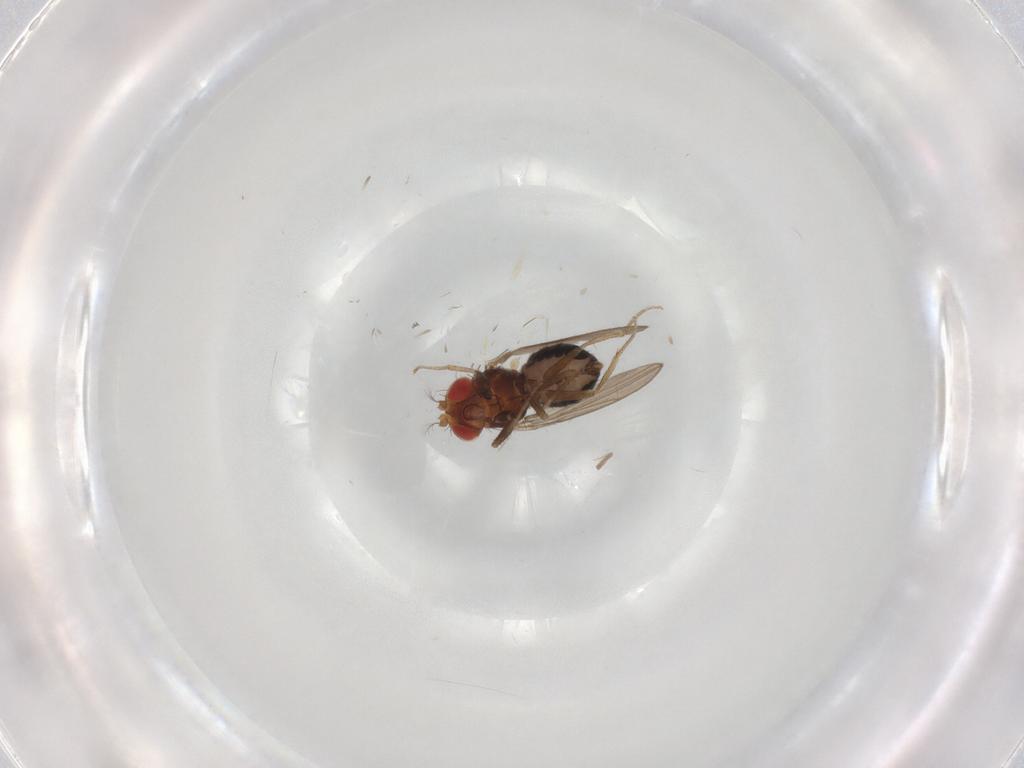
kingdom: Animalia
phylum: Arthropoda
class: Insecta
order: Diptera
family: Drosophilidae
